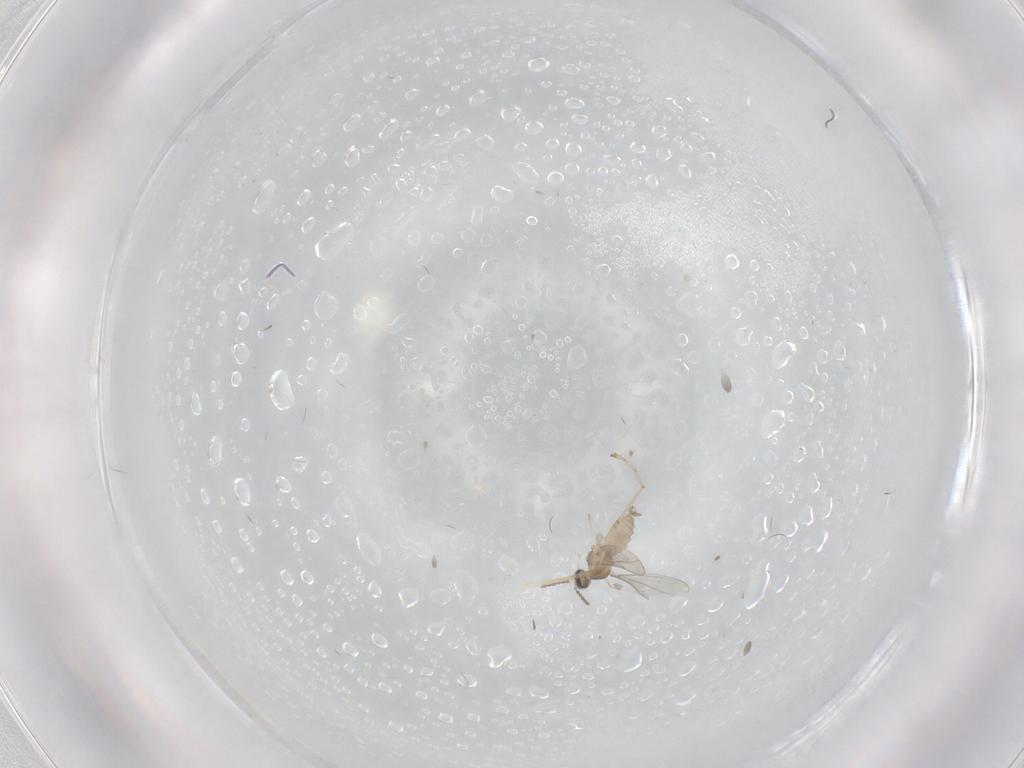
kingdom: Animalia
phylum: Arthropoda
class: Insecta
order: Diptera
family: Cecidomyiidae
